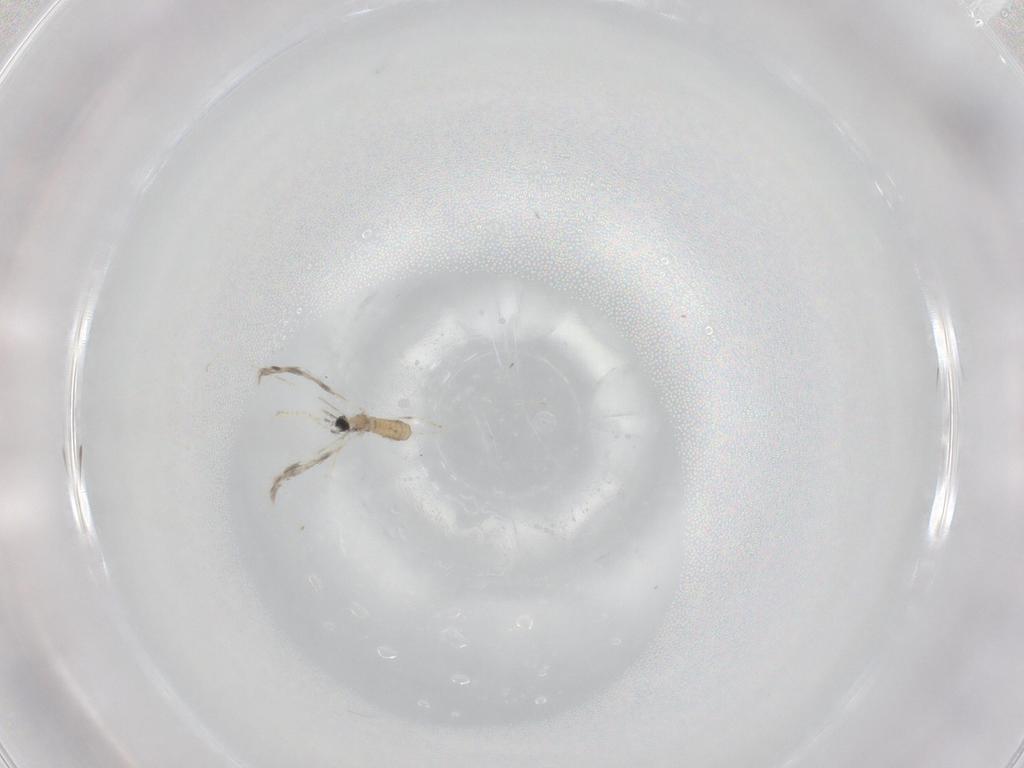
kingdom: Animalia
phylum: Arthropoda
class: Insecta
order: Diptera
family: Cecidomyiidae
